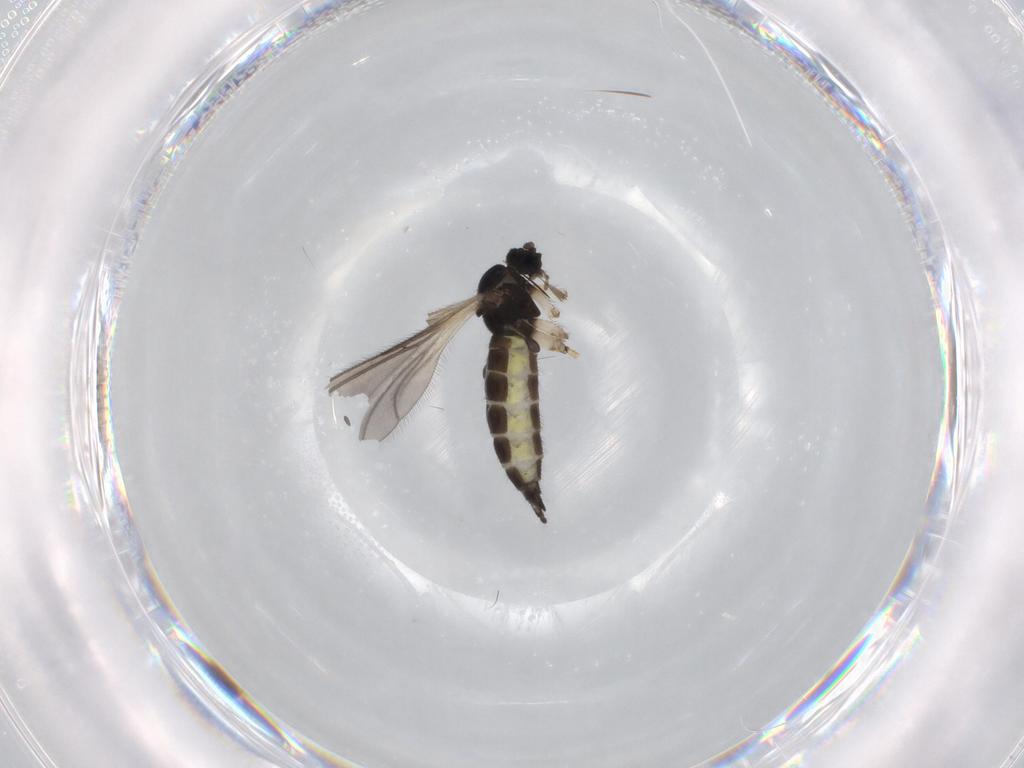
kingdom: Animalia
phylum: Arthropoda
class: Insecta
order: Diptera
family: Sciaridae
